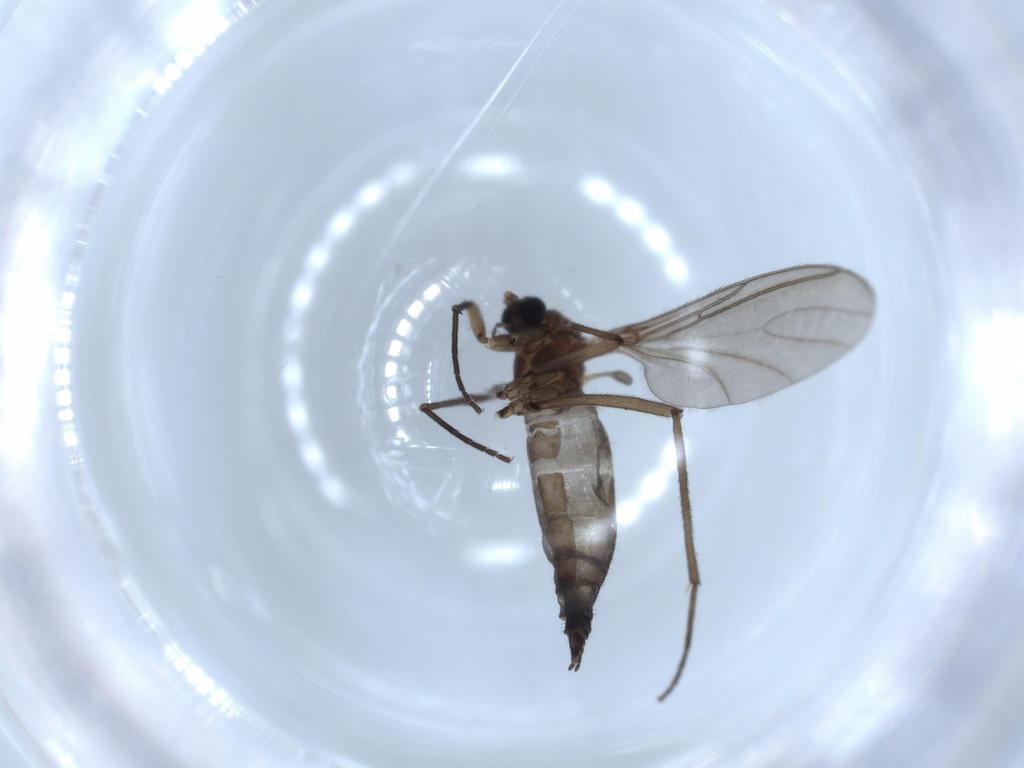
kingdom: Animalia
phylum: Arthropoda
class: Insecta
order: Diptera
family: Sciaridae
